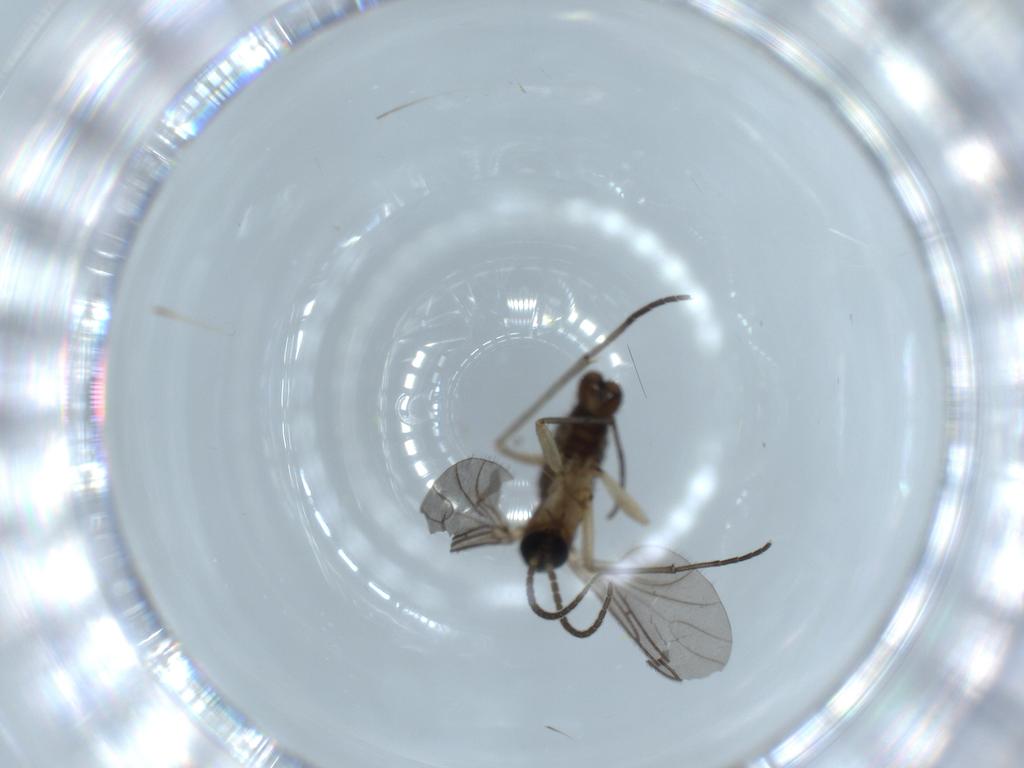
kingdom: Animalia
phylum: Arthropoda
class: Insecta
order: Diptera
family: Sciaridae
